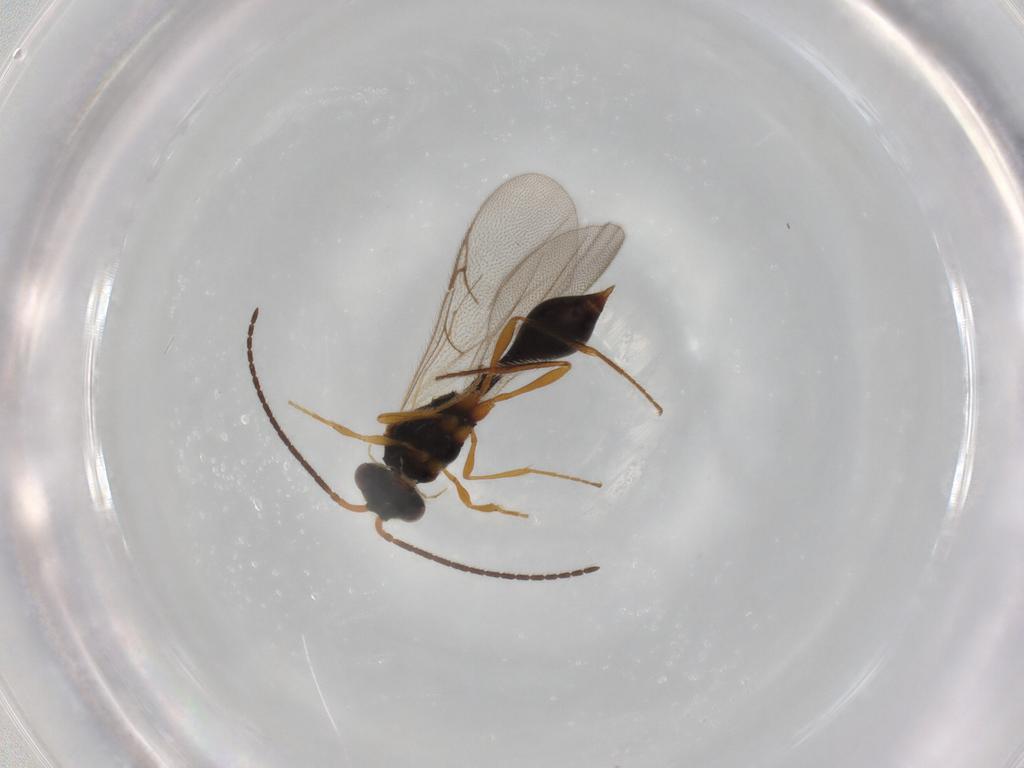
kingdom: Animalia
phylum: Arthropoda
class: Insecta
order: Hymenoptera
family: Diapriidae
